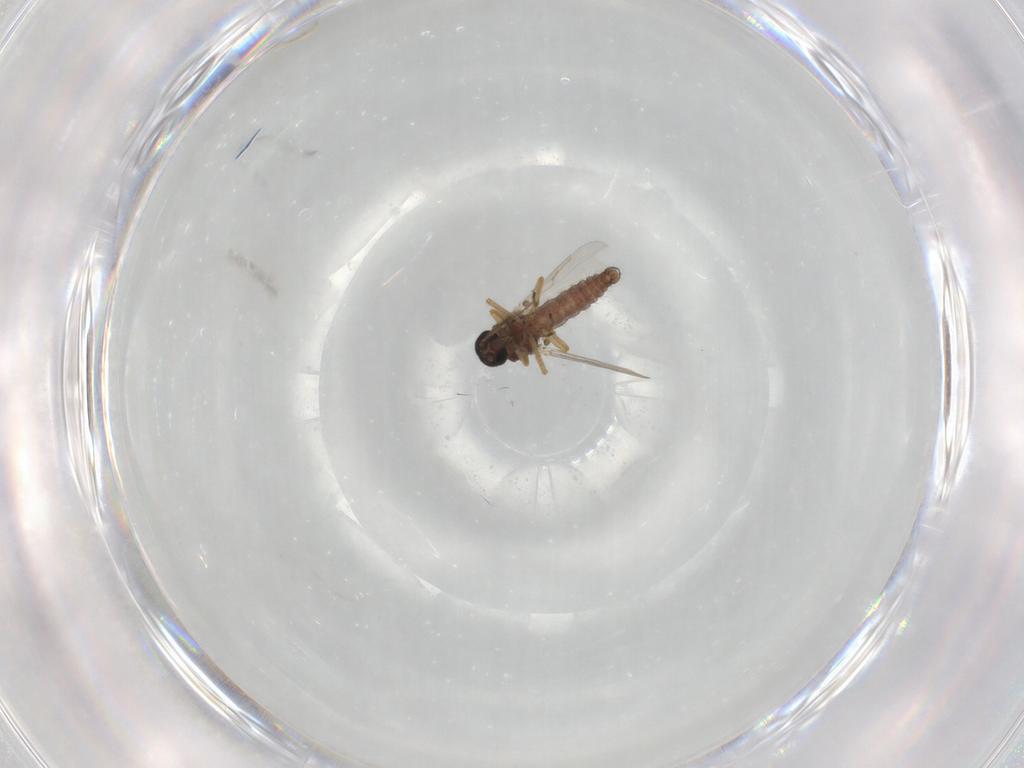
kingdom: Animalia
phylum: Arthropoda
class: Insecta
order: Diptera
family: Ceratopogonidae
